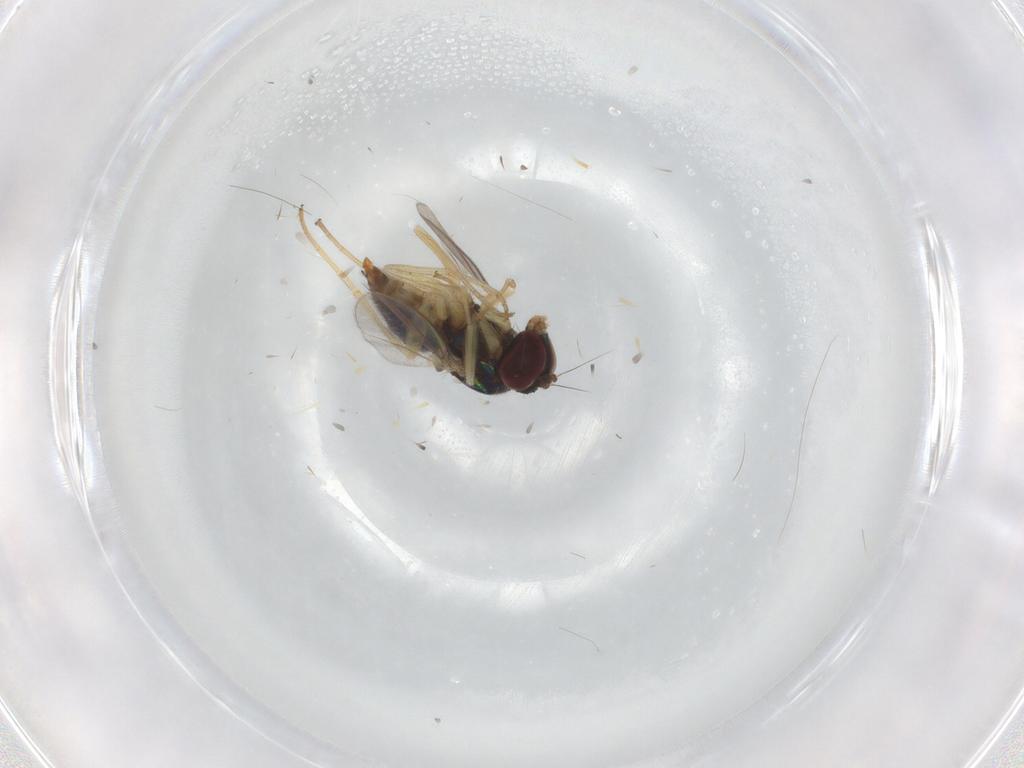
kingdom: Animalia
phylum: Arthropoda
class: Insecta
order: Diptera
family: Dolichopodidae
